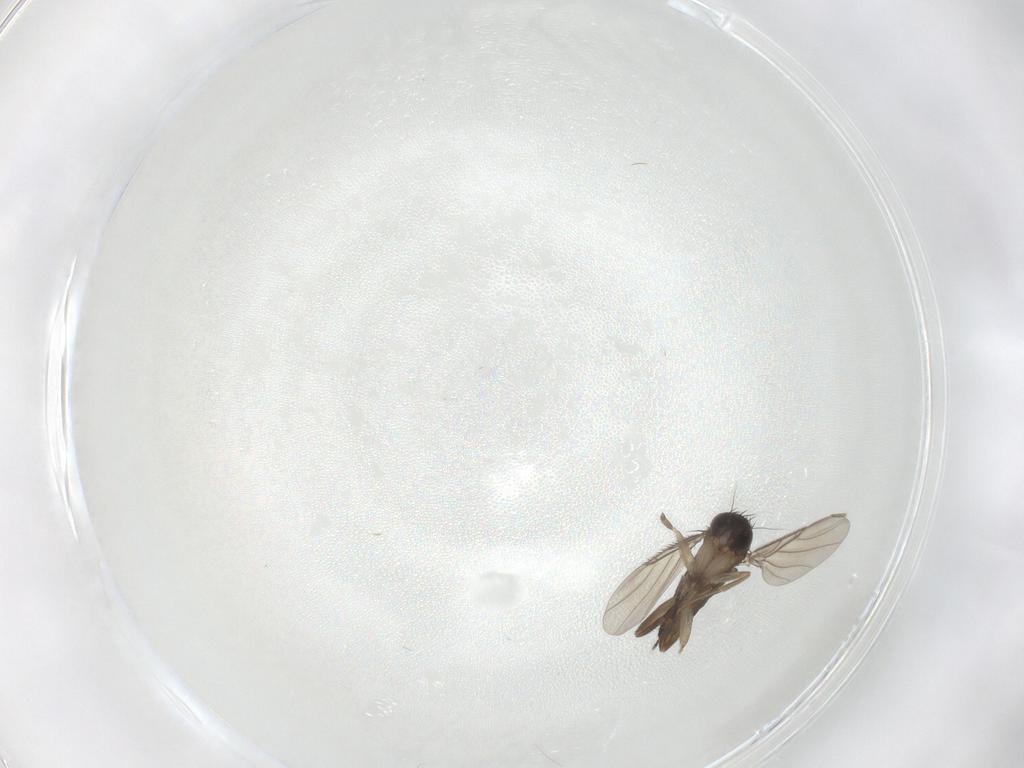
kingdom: Animalia
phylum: Arthropoda
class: Insecta
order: Diptera
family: Phoridae
